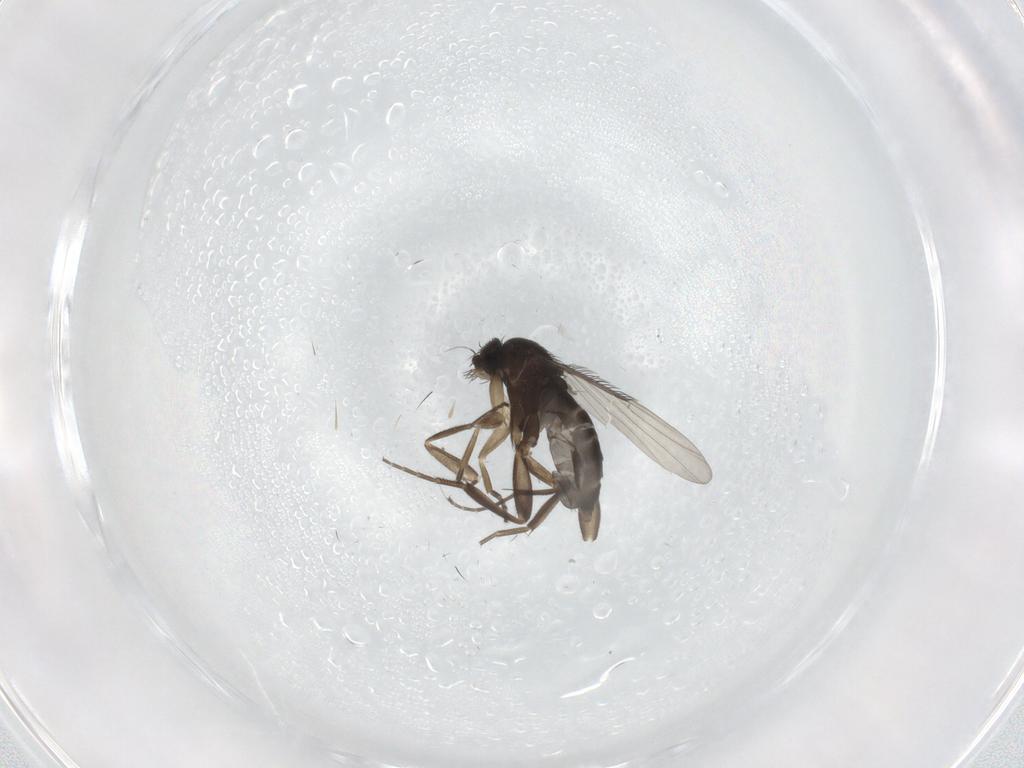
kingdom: Animalia
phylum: Arthropoda
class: Insecta
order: Diptera
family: Phoridae
